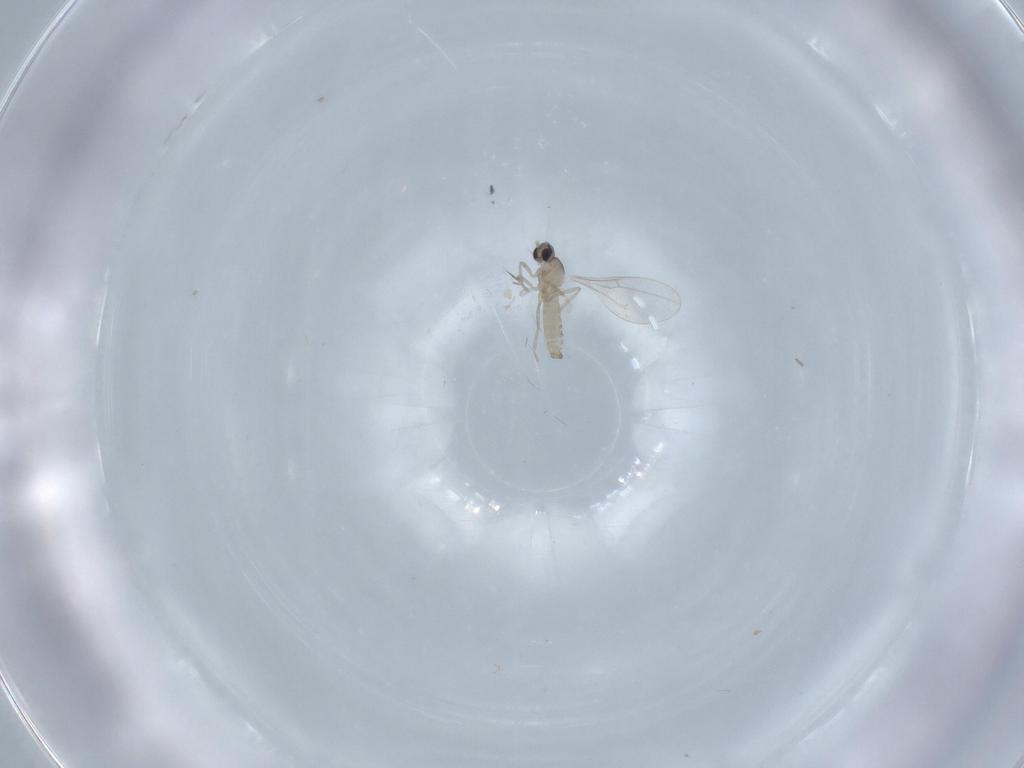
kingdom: Animalia
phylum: Arthropoda
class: Insecta
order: Diptera
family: Cecidomyiidae
